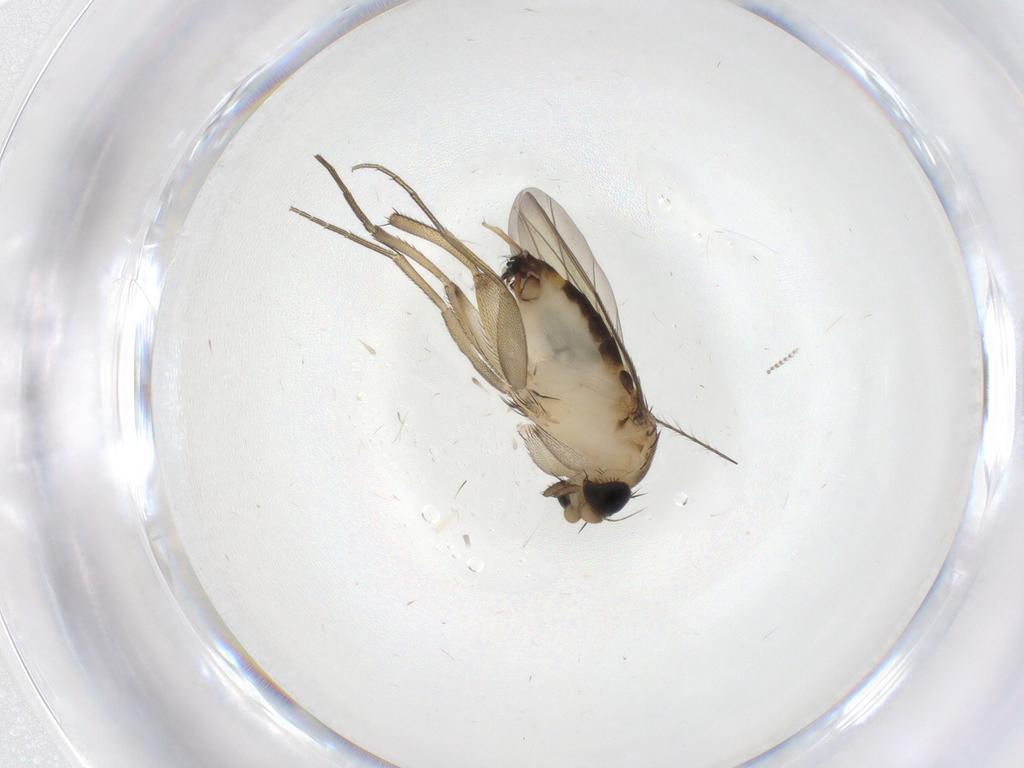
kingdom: Animalia
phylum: Arthropoda
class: Insecta
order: Diptera
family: Phoridae
